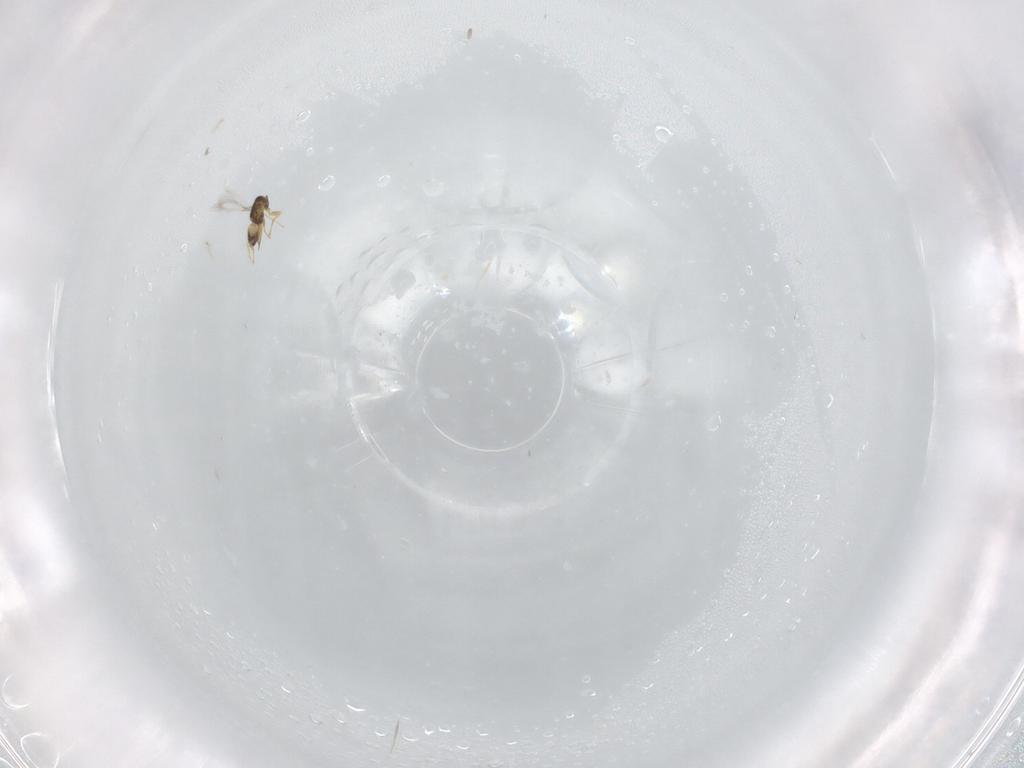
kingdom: Animalia
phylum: Arthropoda
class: Insecta
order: Hymenoptera
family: Mymaridae
